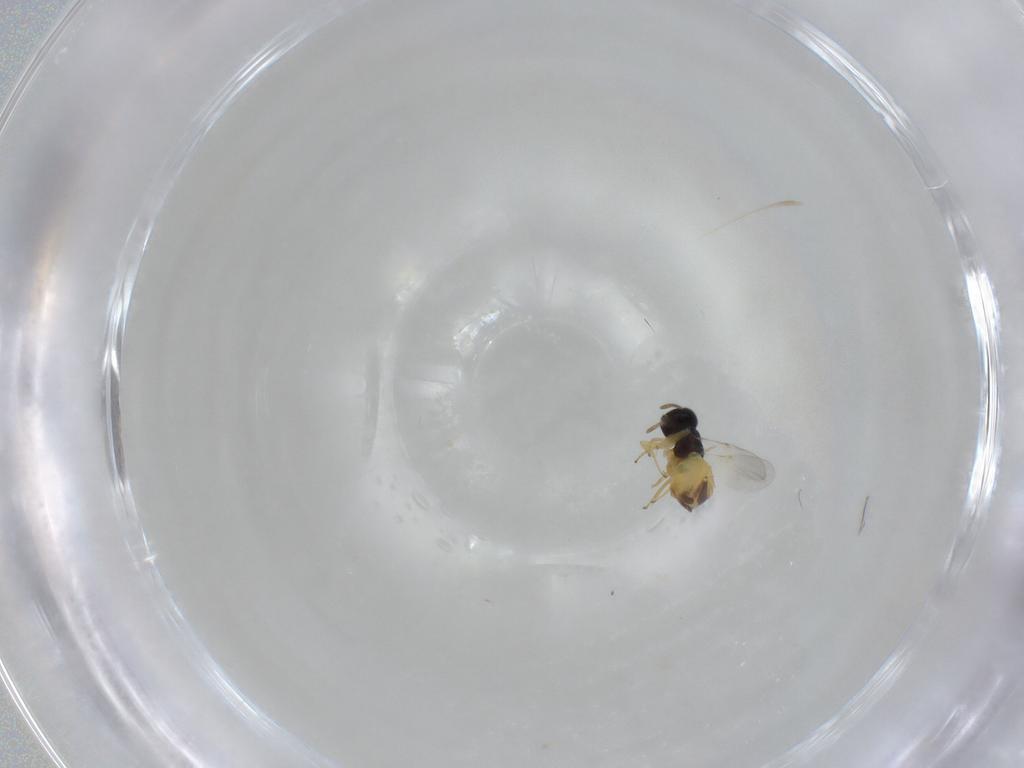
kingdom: Animalia
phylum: Arthropoda
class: Insecta
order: Hymenoptera
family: Encyrtidae
